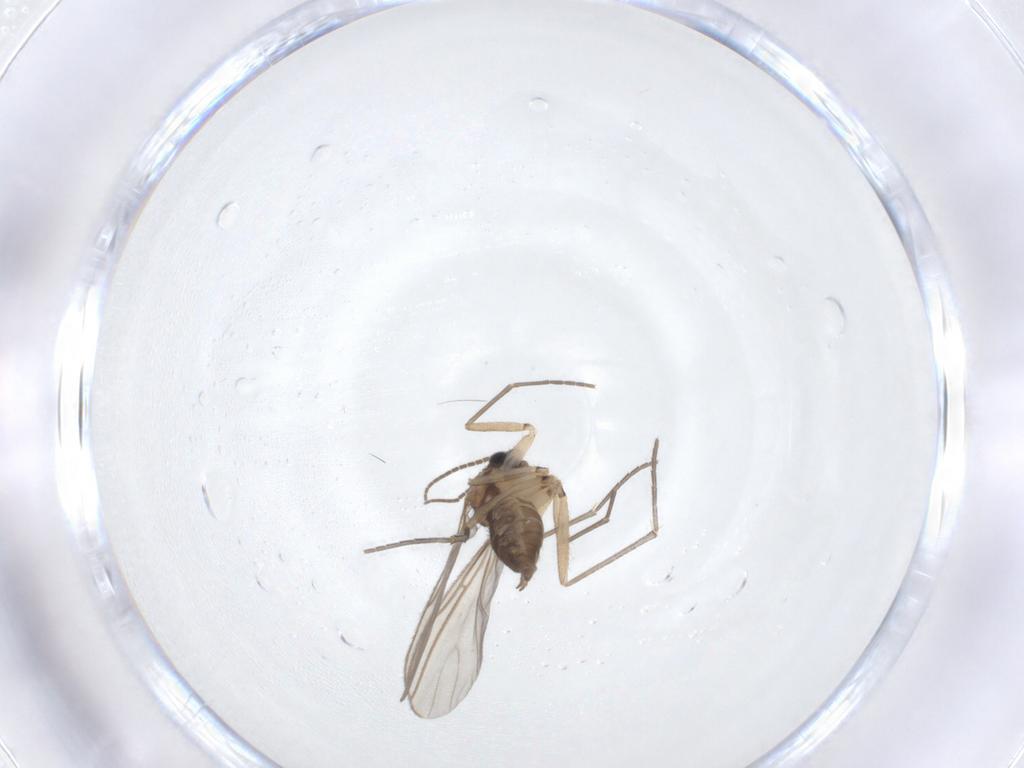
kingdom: Animalia
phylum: Arthropoda
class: Insecta
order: Diptera
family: Sciaridae
